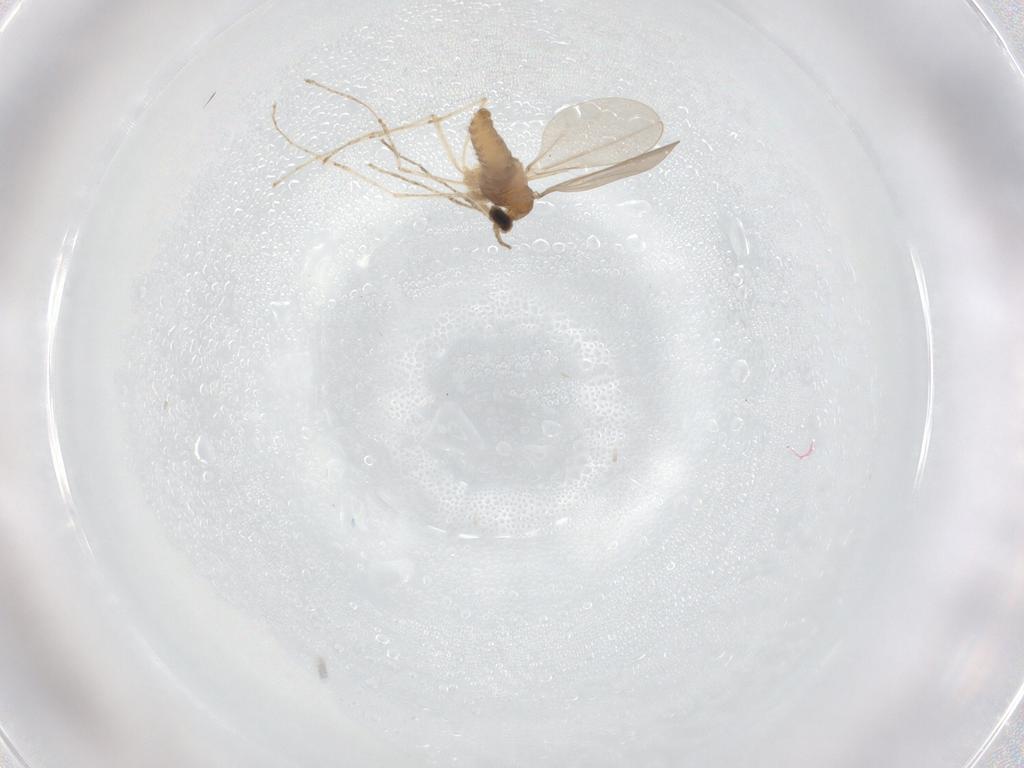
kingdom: Animalia
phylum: Arthropoda
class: Insecta
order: Diptera
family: Cecidomyiidae
